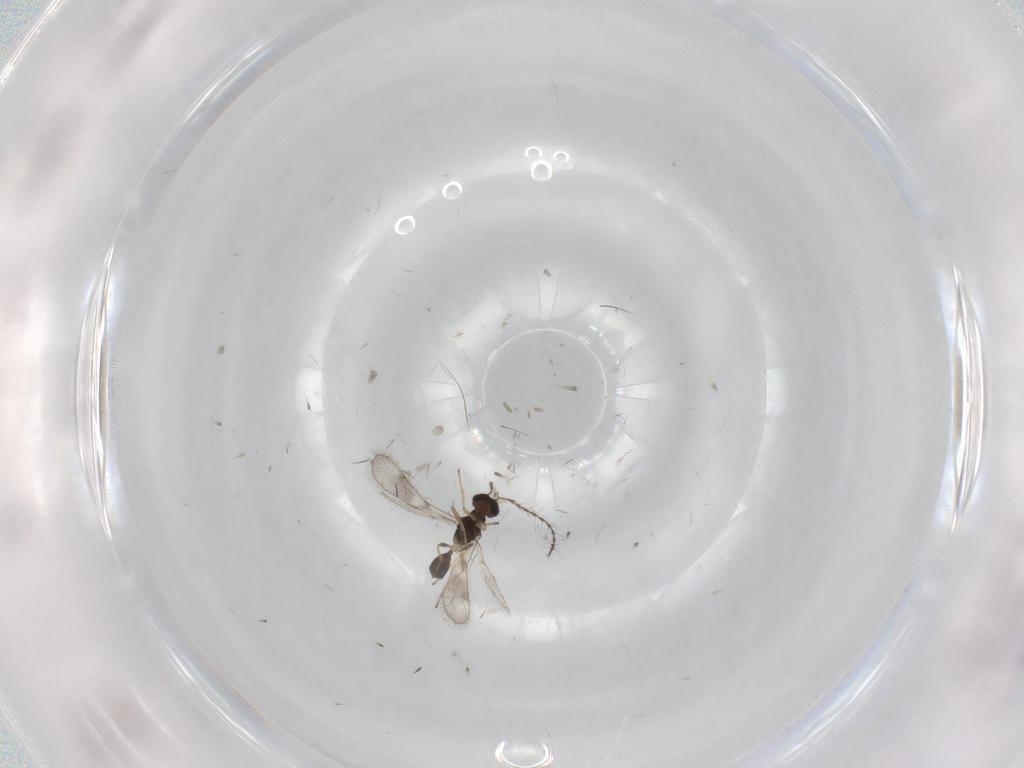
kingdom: Animalia
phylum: Arthropoda
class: Insecta
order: Hymenoptera
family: Diparidae
